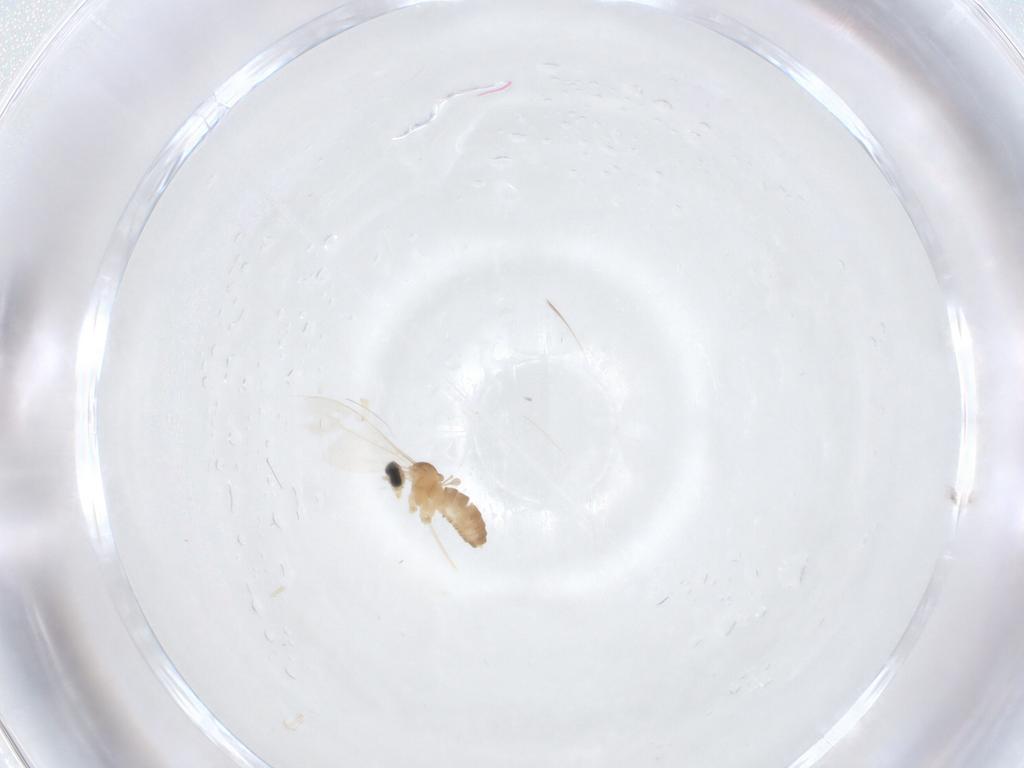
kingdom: Animalia
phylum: Arthropoda
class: Insecta
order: Diptera
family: Cecidomyiidae
